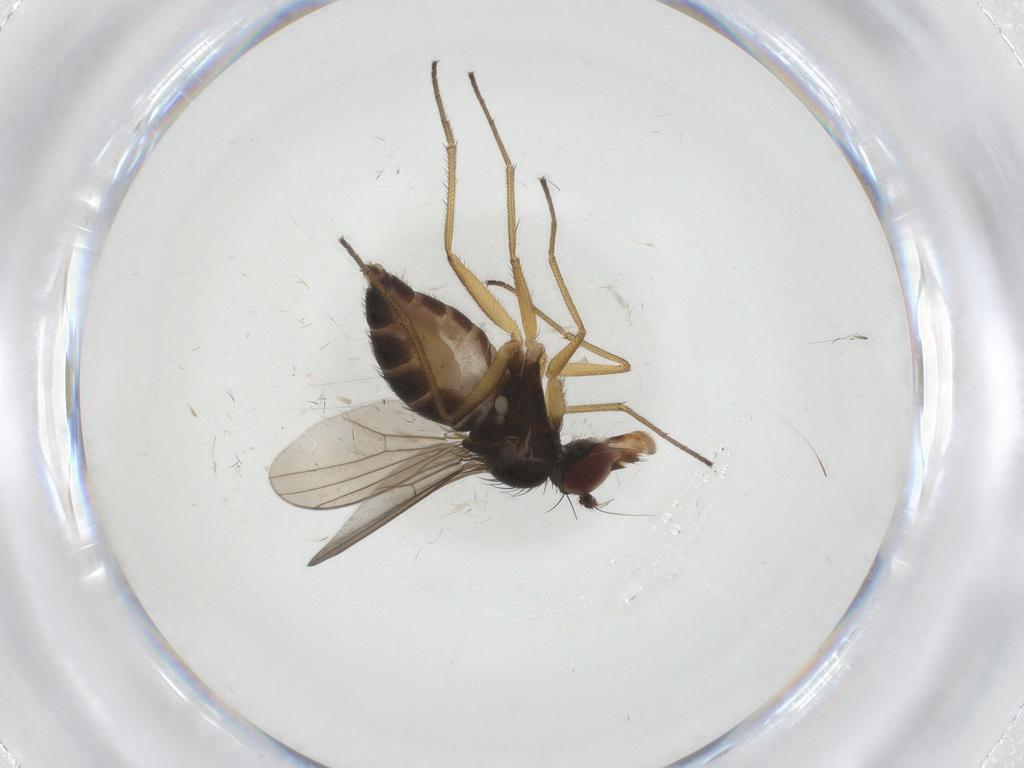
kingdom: Animalia
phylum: Arthropoda
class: Insecta
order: Diptera
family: Dolichopodidae
